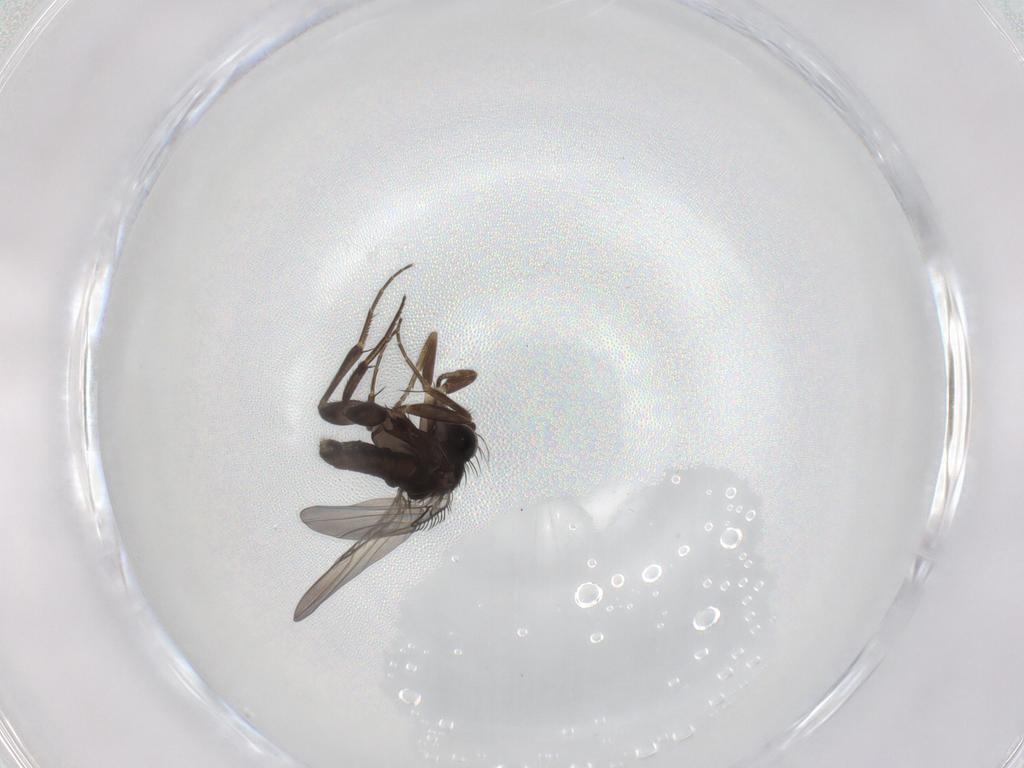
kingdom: Animalia
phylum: Arthropoda
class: Insecta
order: Diptera
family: Phoridae
